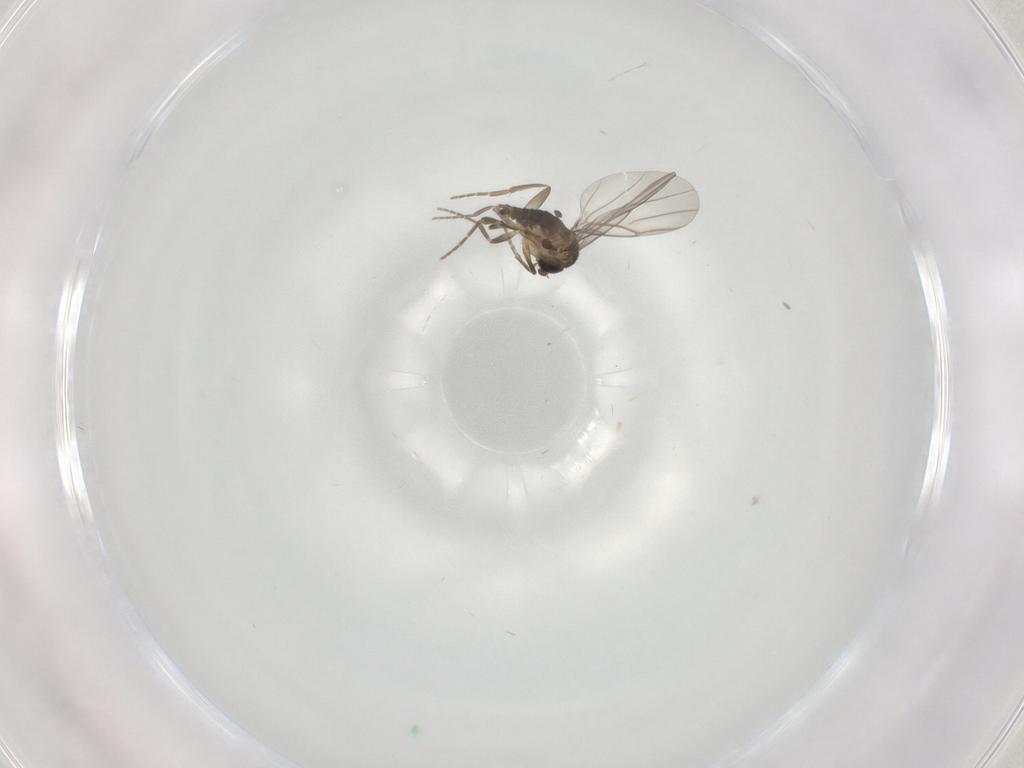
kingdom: Animalia
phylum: Arthropoda
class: Insecta
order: Diptera
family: Phoridae
